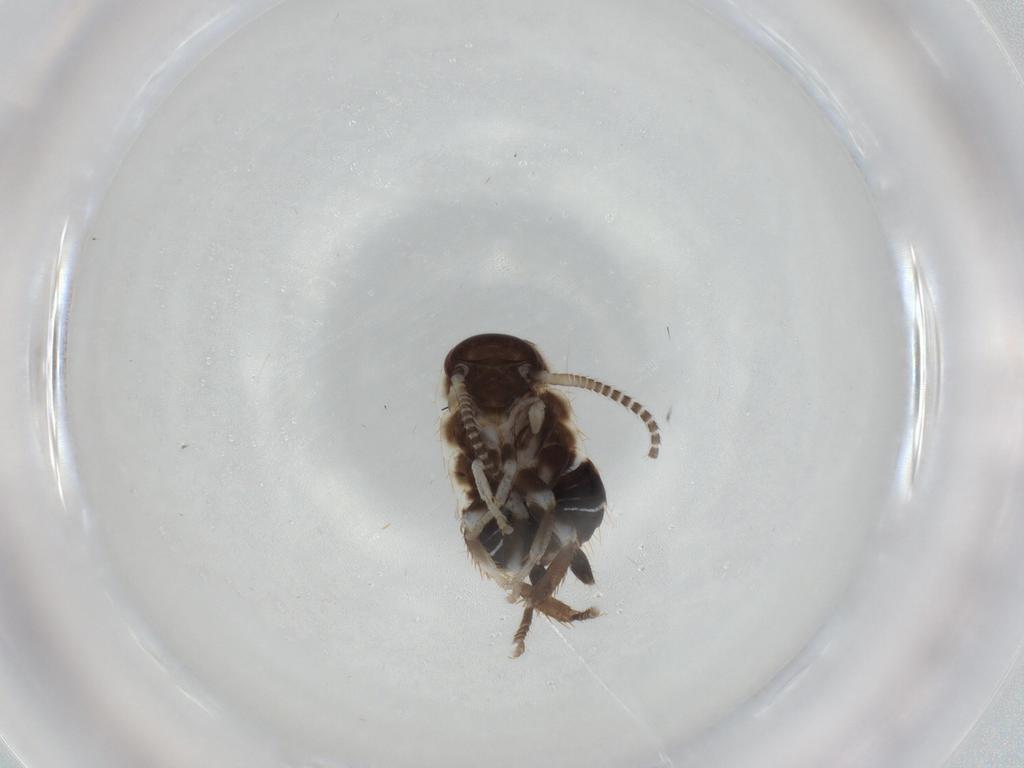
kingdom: Animalia
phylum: Arthropoda
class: Insecta
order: Blattodea
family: Ectobiidae
